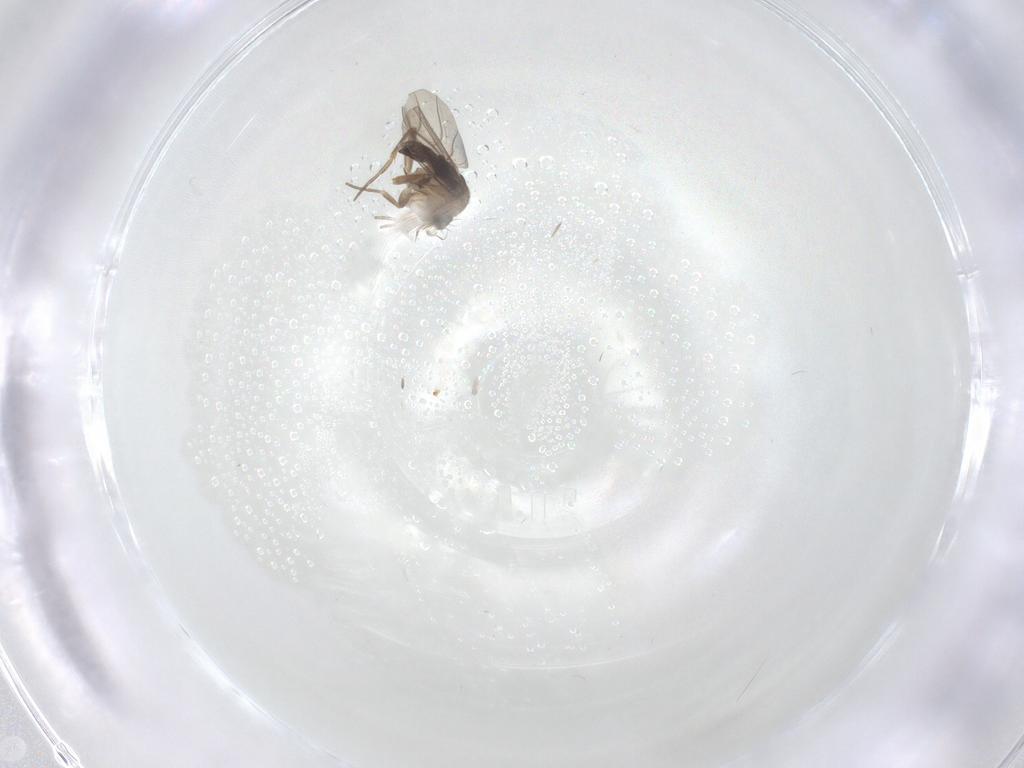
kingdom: Animalia
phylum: Arthropoda
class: Insecta
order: Diptera
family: Phoridae
